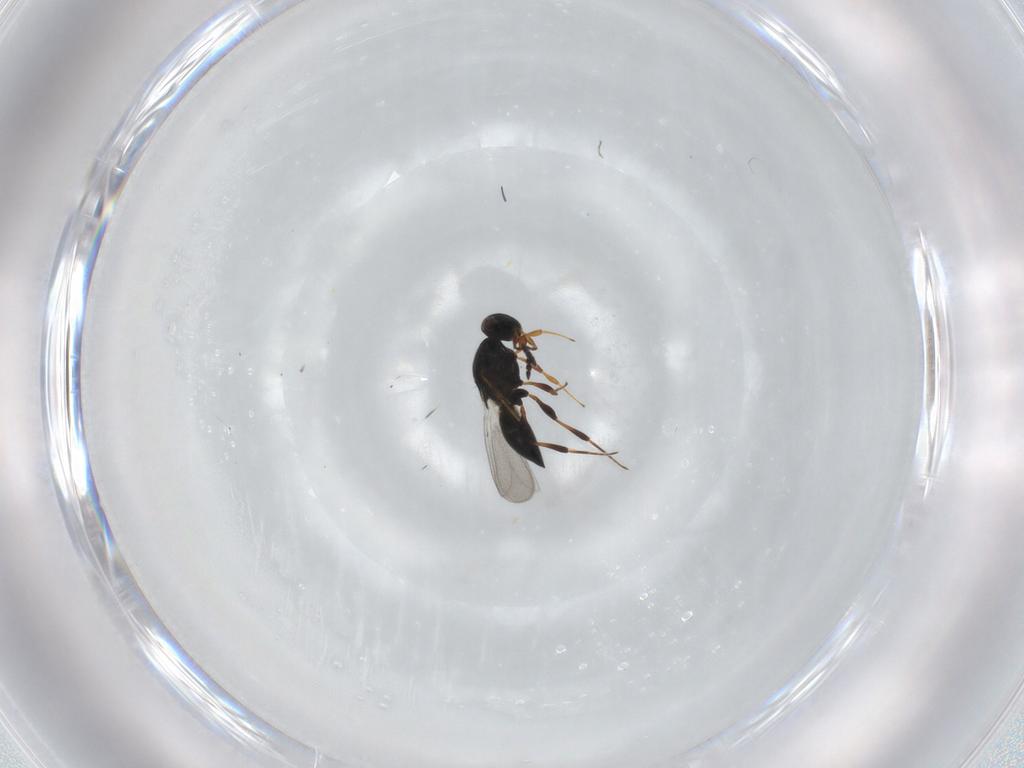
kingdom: Animalia
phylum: Arthropoda
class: Insecta
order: Hymenoptera
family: Platygastridae
